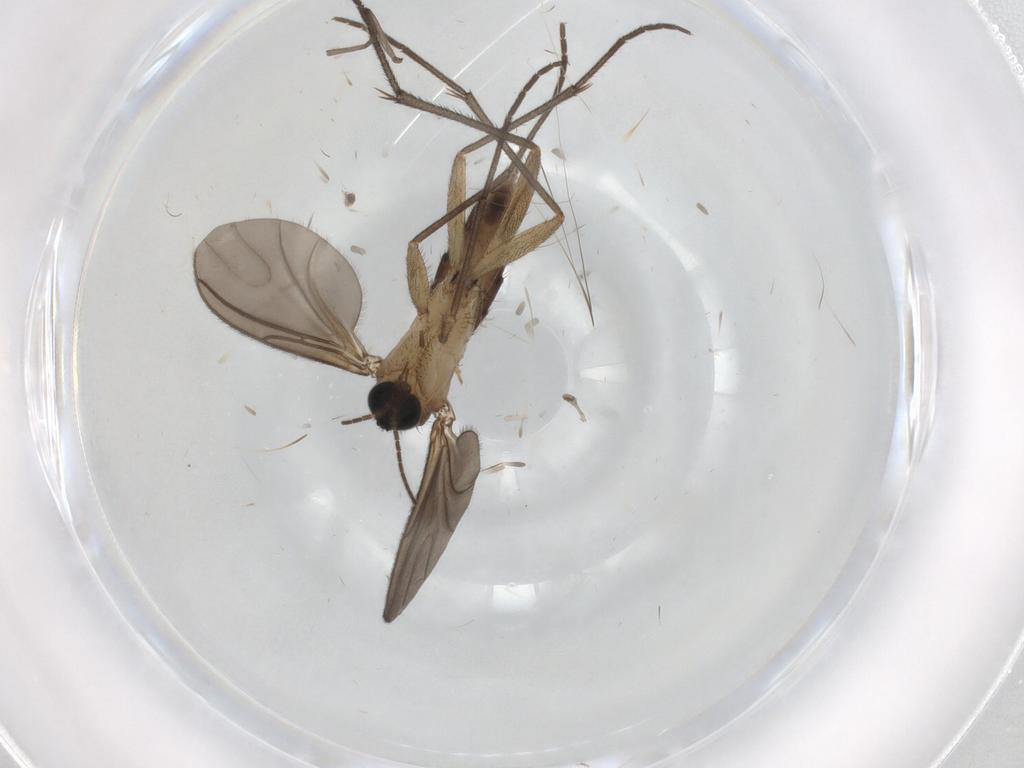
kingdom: Animalia
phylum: Arthropoda
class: Insecta
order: Diptera
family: Sciaridae
